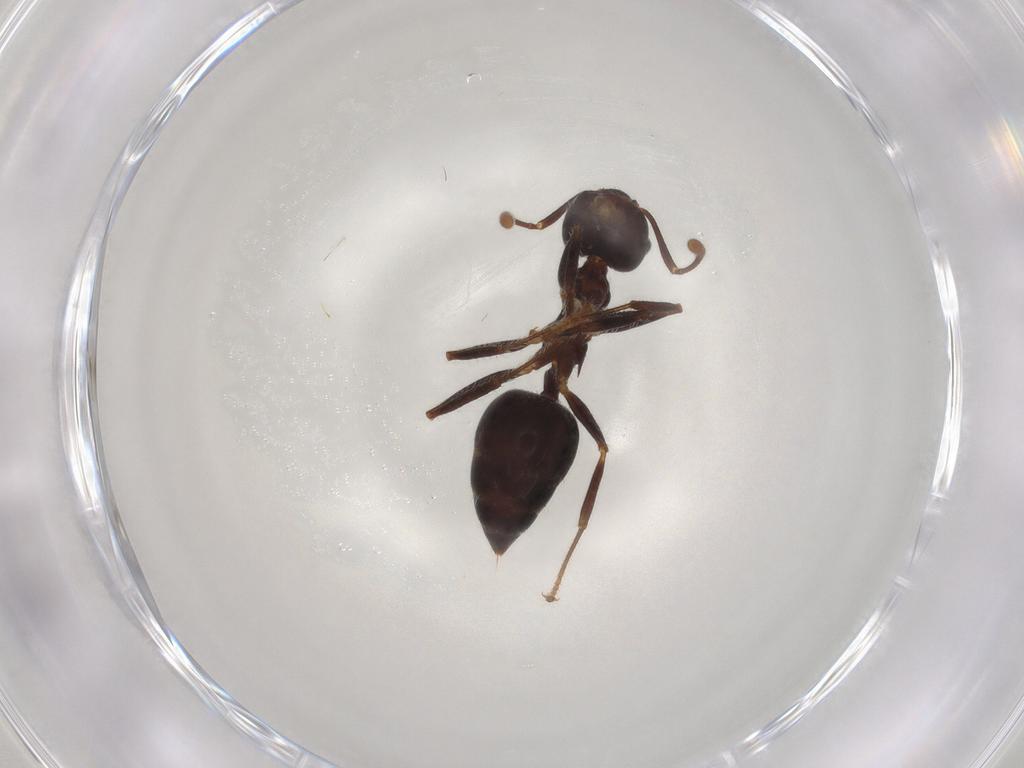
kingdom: Animalia
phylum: Arthropoda
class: Insecta
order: Hymenoptera
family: Formicidae
